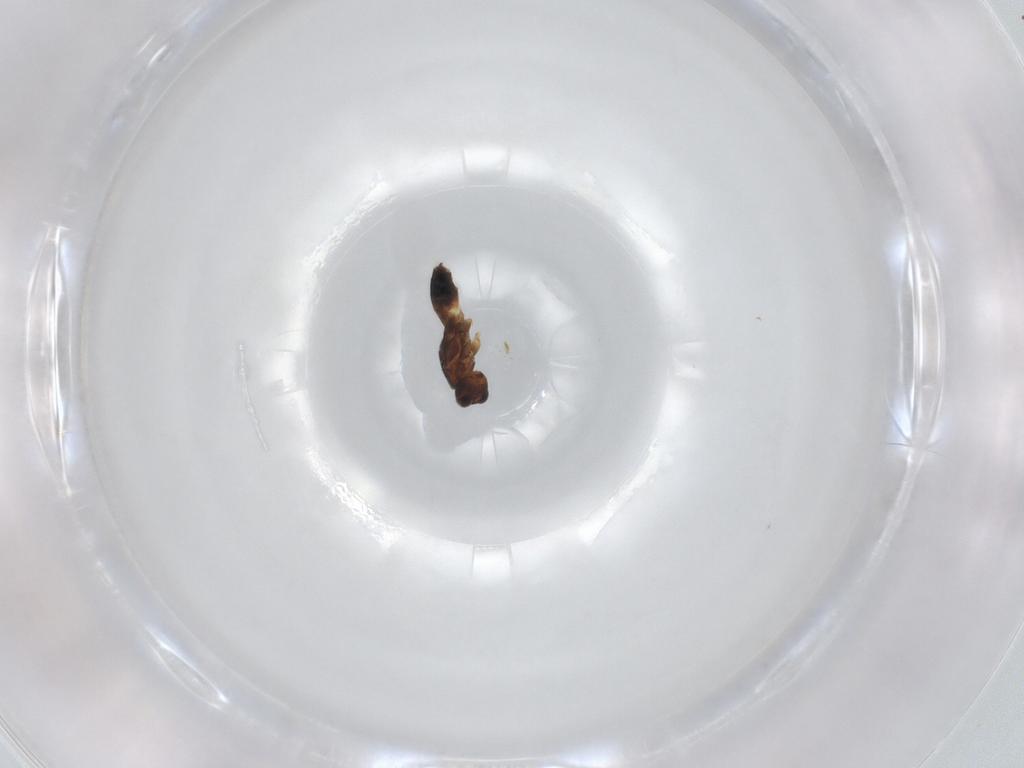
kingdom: Animalia
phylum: Arthropoda
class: Insecta
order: Hymenoptera
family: Mymaridae
